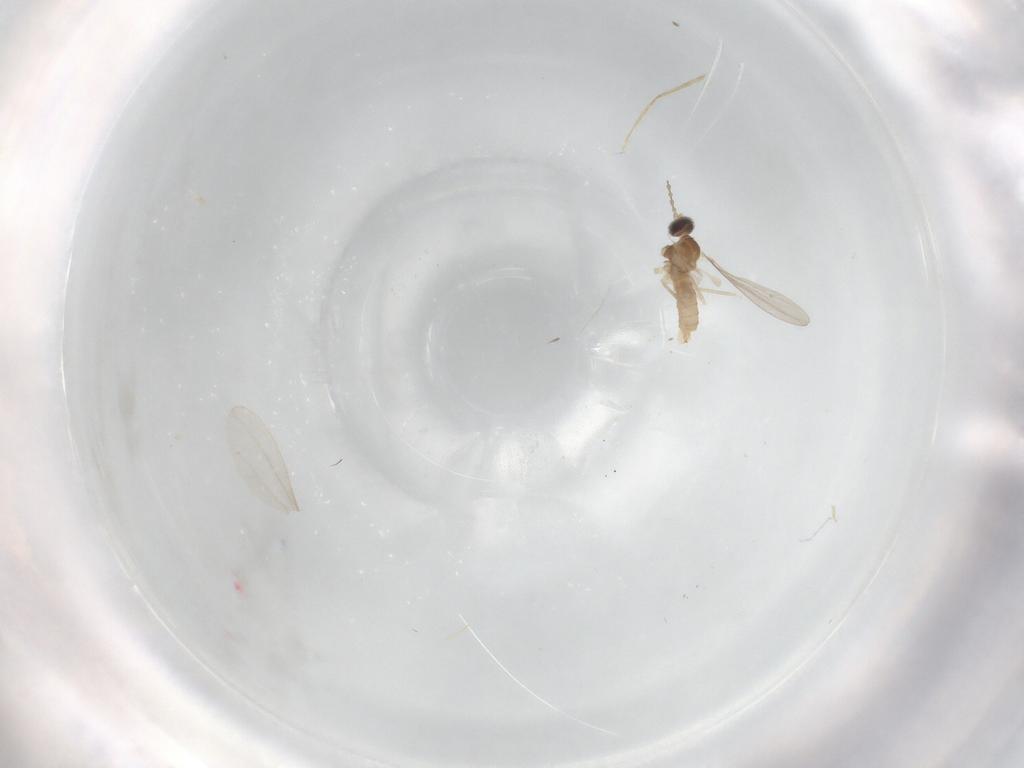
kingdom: Animalia
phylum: Arthropoda
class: Insecta
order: Diptera
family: Cecidomyiidae
